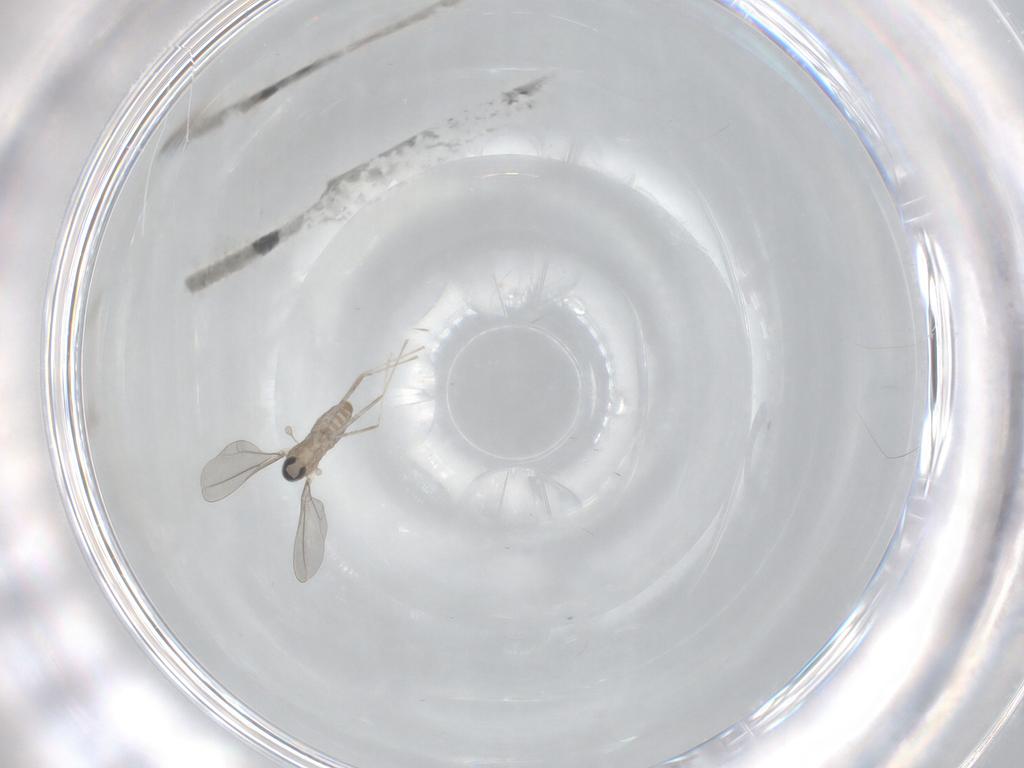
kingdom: Animalia
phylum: Arthropoda
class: Insecta
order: Diptera
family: Cecidomyiidae
